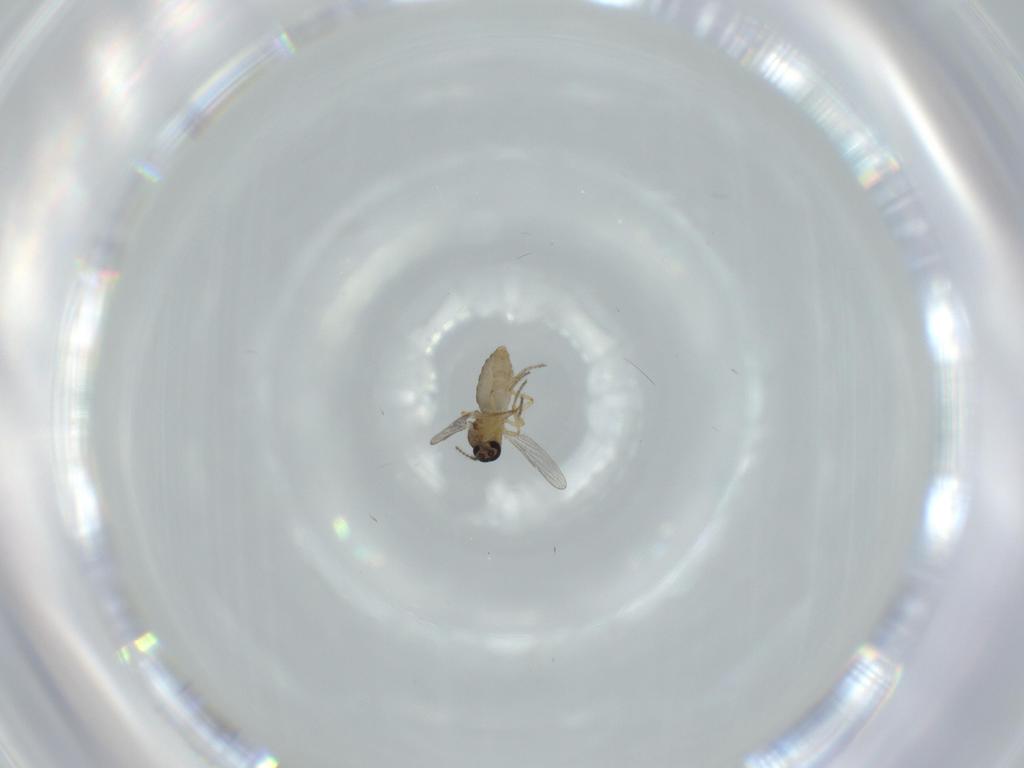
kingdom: Animalia
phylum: Arthropoda
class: Insecta
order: Diptera
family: Ceratopogonidae
